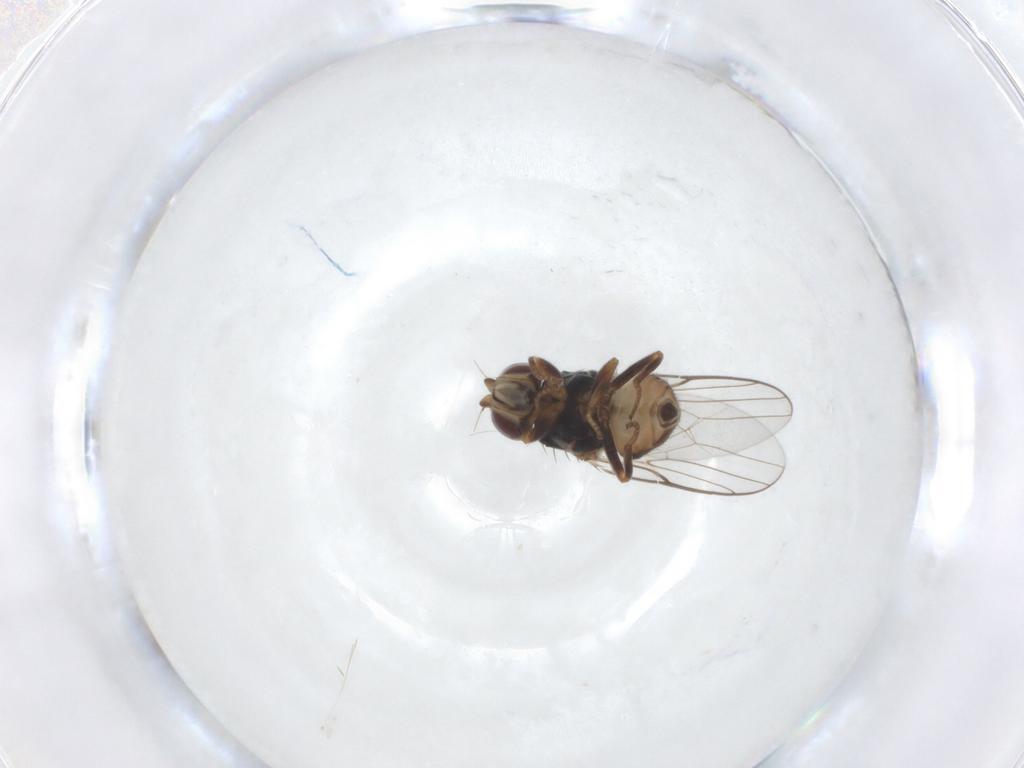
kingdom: Animalia
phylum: Arthropoda
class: Insecta
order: Diptera
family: Chloropidae
